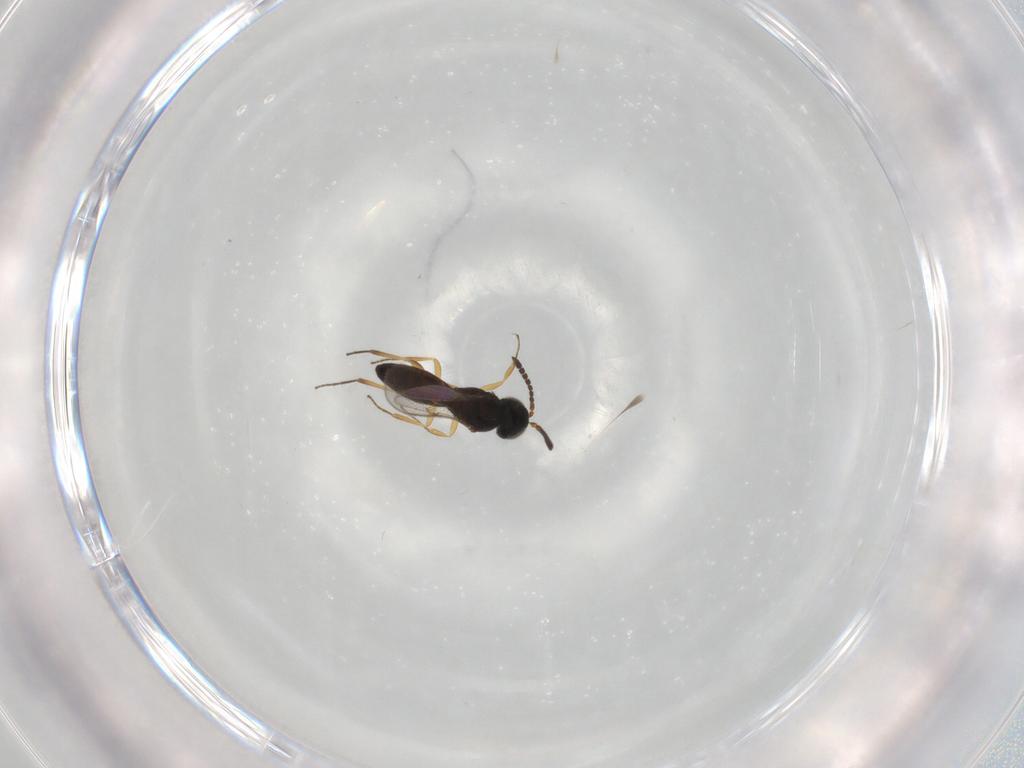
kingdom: Animalia
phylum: Arthropoda
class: Insecta
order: Hymenoptera
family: Scelionidae
